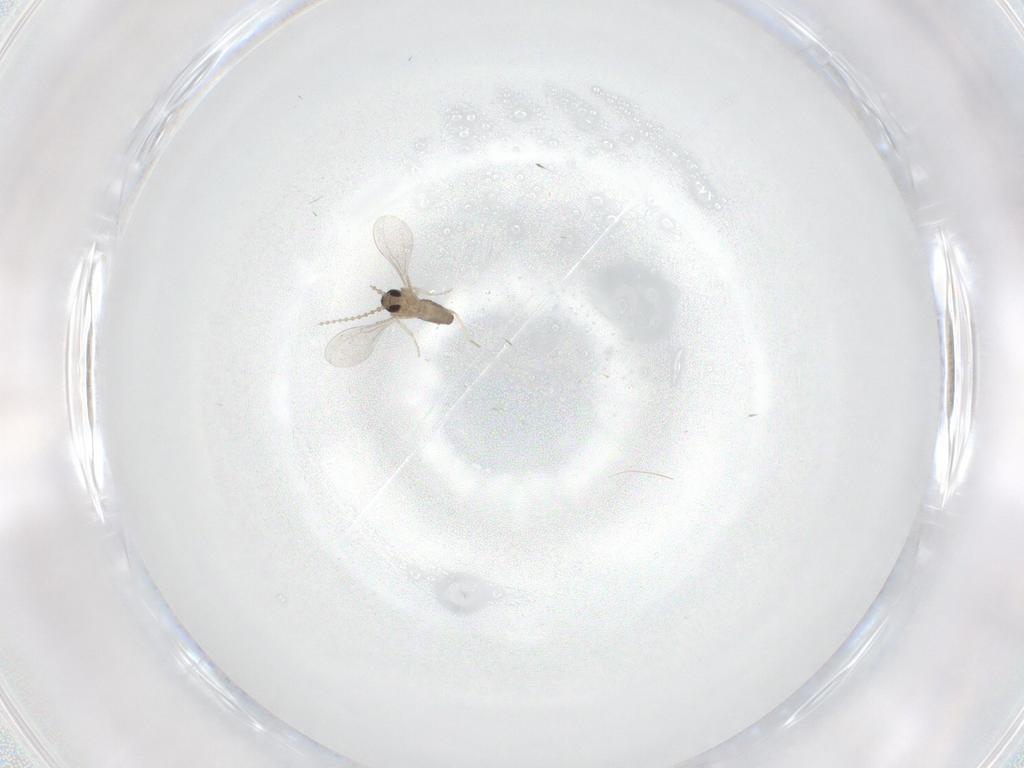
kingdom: Animalia
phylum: Arthropoda
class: Insecta
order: Diptera
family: Cecidomyiidae
